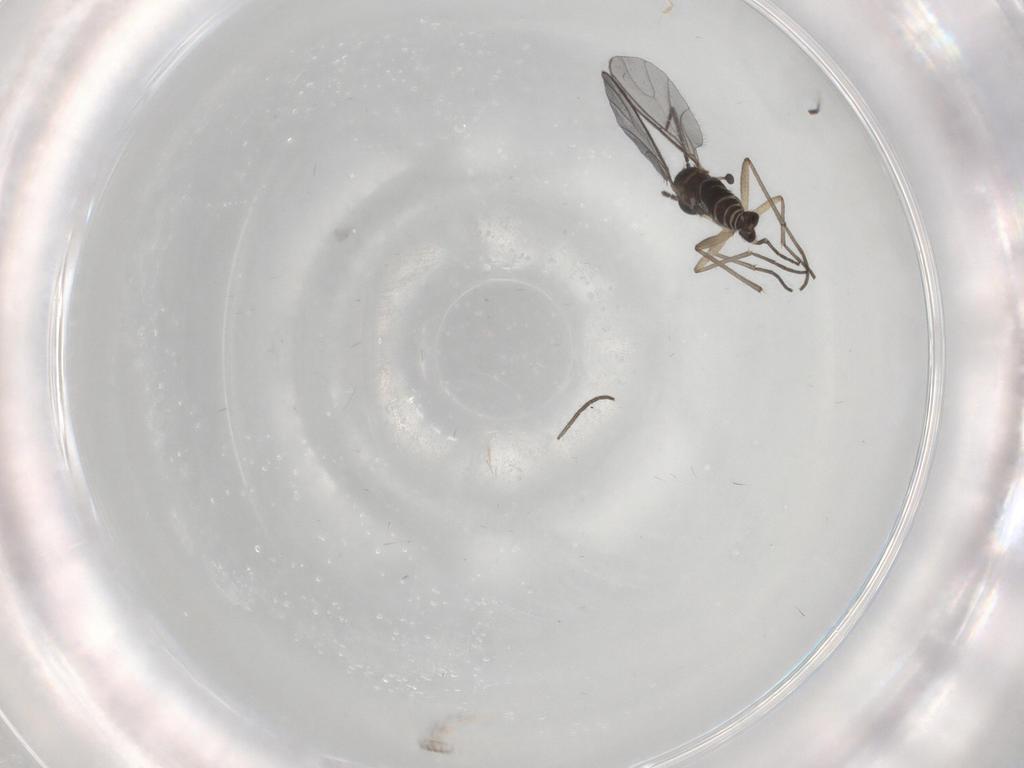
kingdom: Animalia
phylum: Arthropoda
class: Insecta
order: Diptera
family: Sciaridae
